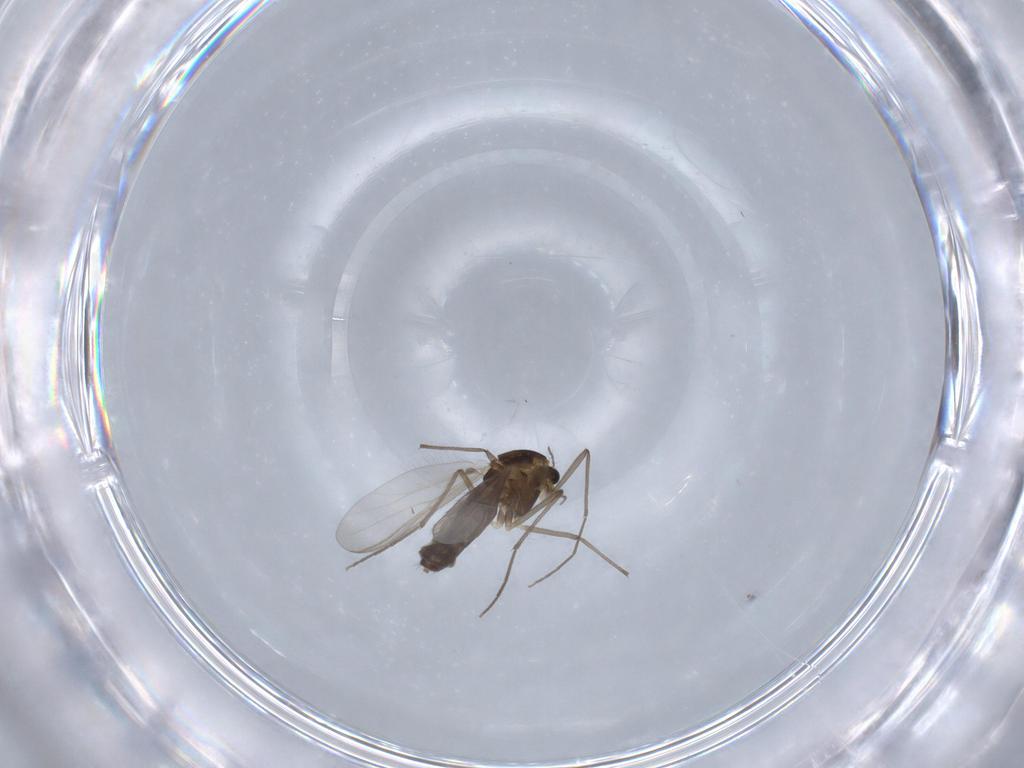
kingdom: Animalia
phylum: Arthropoda
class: Insecta
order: Diptera
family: Chironomidae
